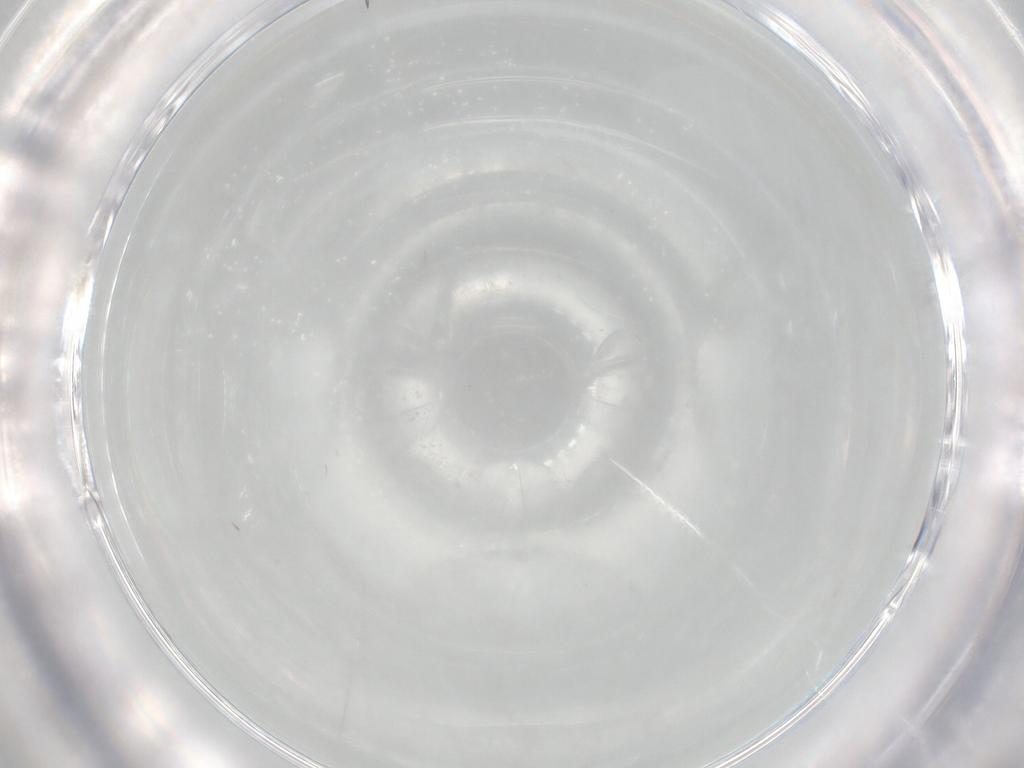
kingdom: Animalia
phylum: Arthropoda
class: Insecta
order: Diptera
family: Cecidomyiidae
